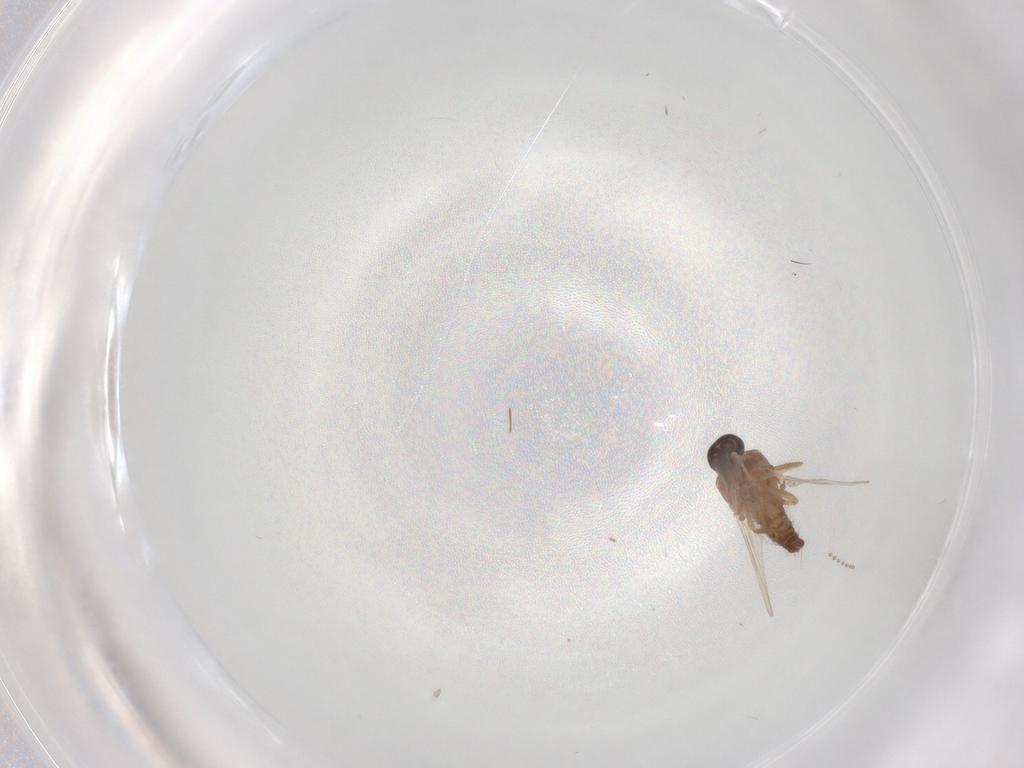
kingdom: Animalia
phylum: Arthropoda
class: Insecta
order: Diptera
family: Ceratopogonidae
